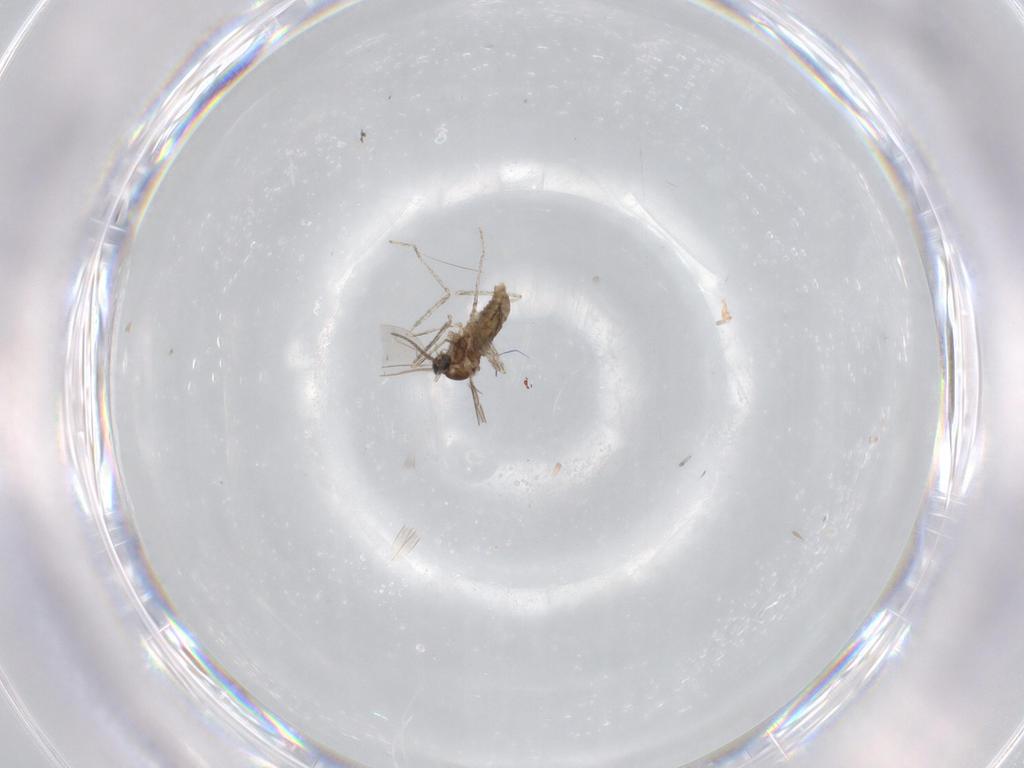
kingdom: Animalia
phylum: Arthropoda
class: Insecta
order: Diptera
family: Cecidomyiidae
